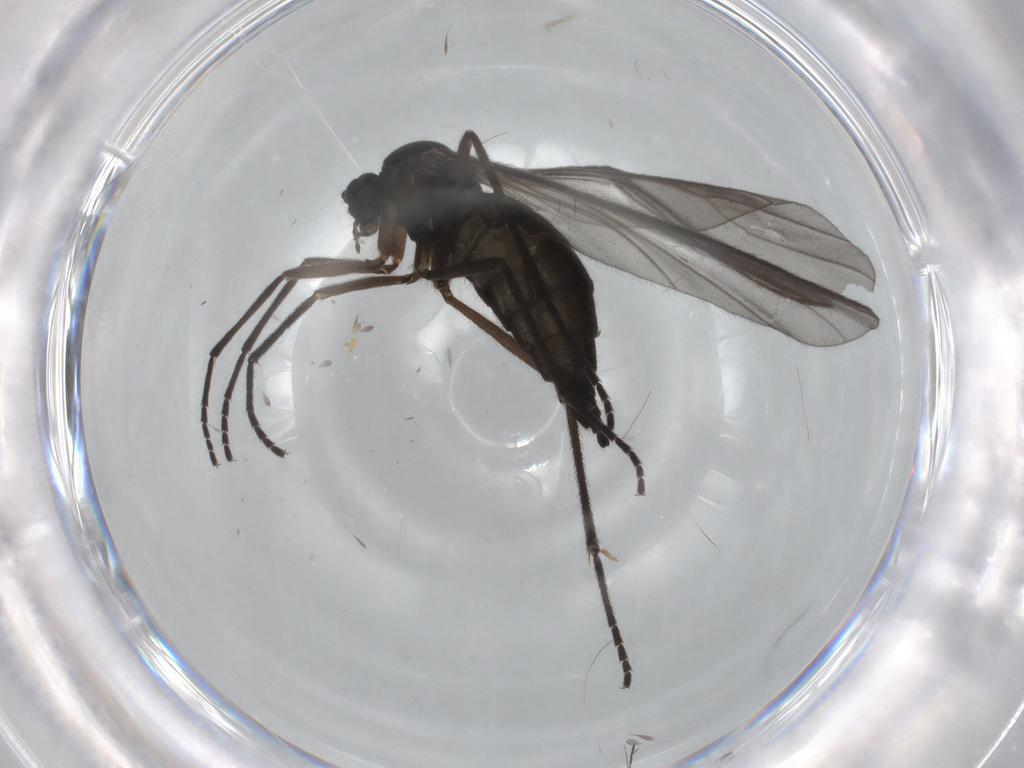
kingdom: Animalia
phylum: Arthropoda
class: Insecta
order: Diptera
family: Sciaridae
